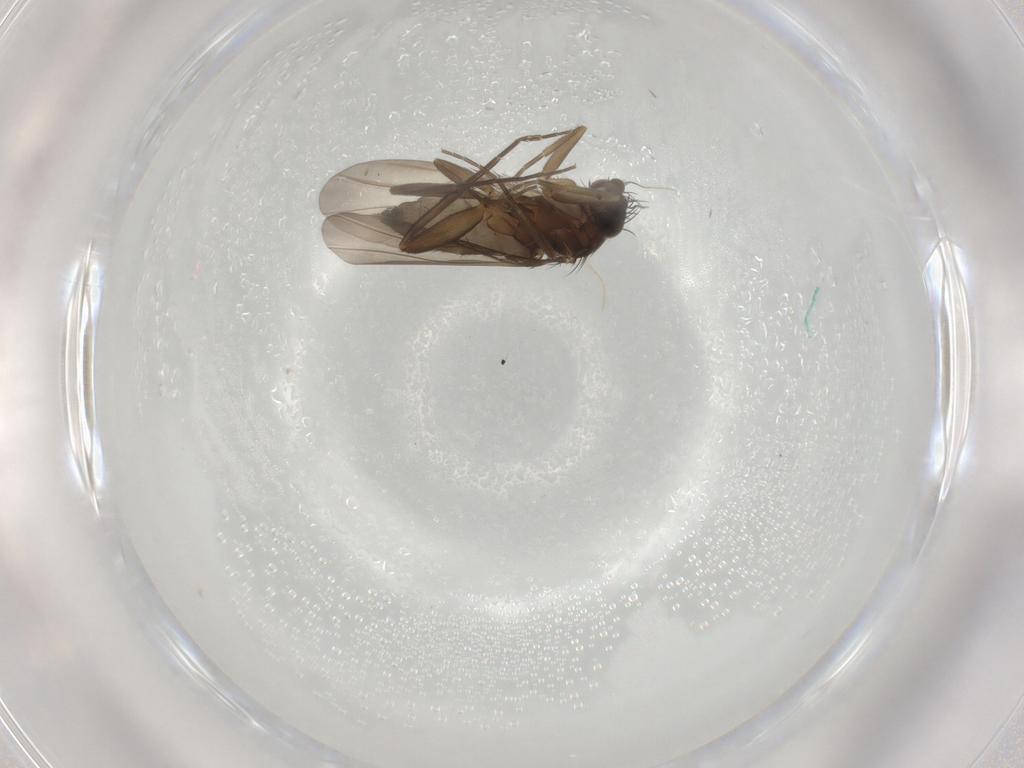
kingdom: Animalia
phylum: Arthropoda
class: Insecta
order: Diptera
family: Phoridae
